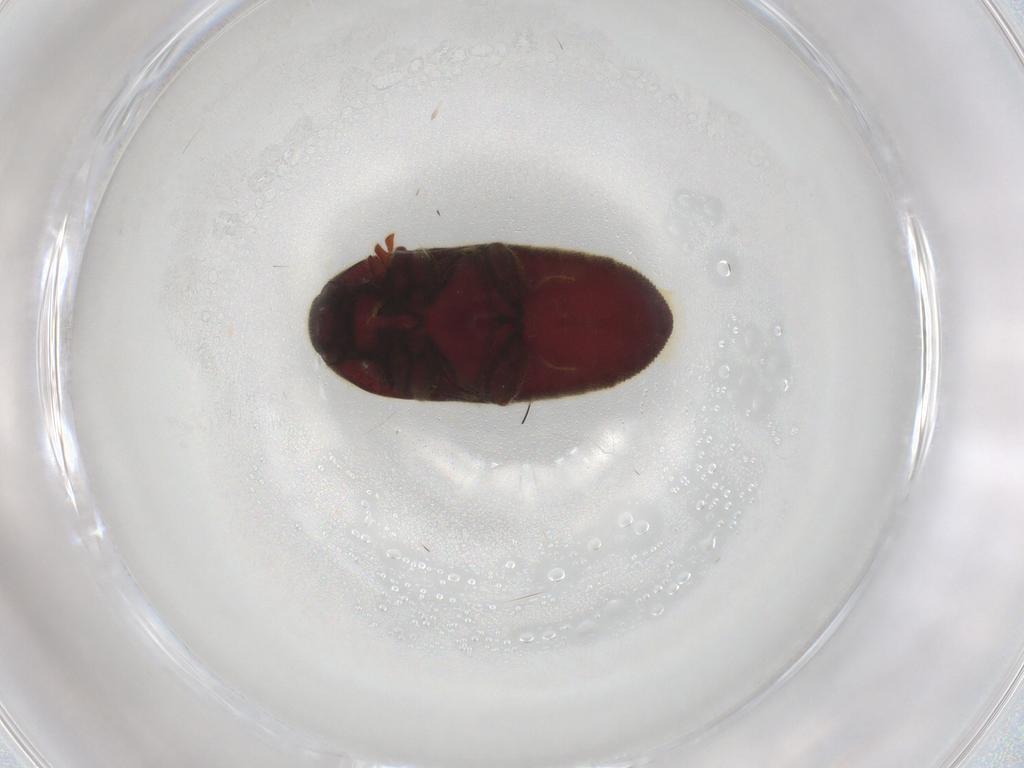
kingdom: Animalia
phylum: Arthropoda
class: Insecta
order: Coleoptera
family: Throscidae
